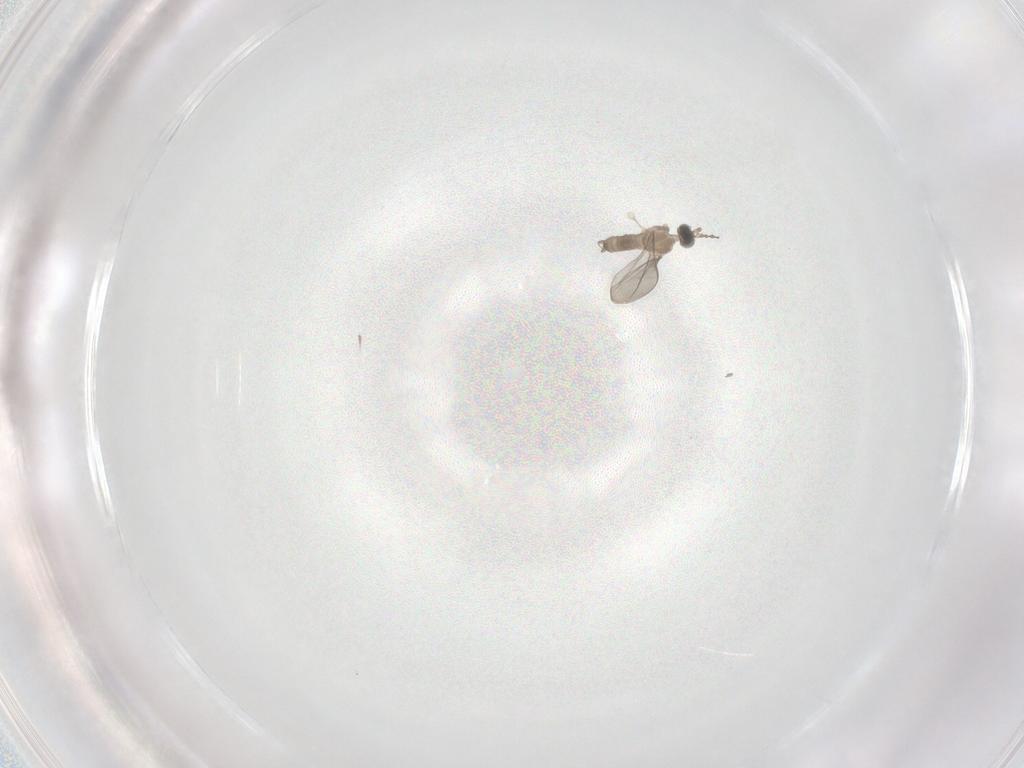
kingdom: Animalia
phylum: Arthropoda
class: Insecta
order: Diptera
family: Cecidomyiidae
